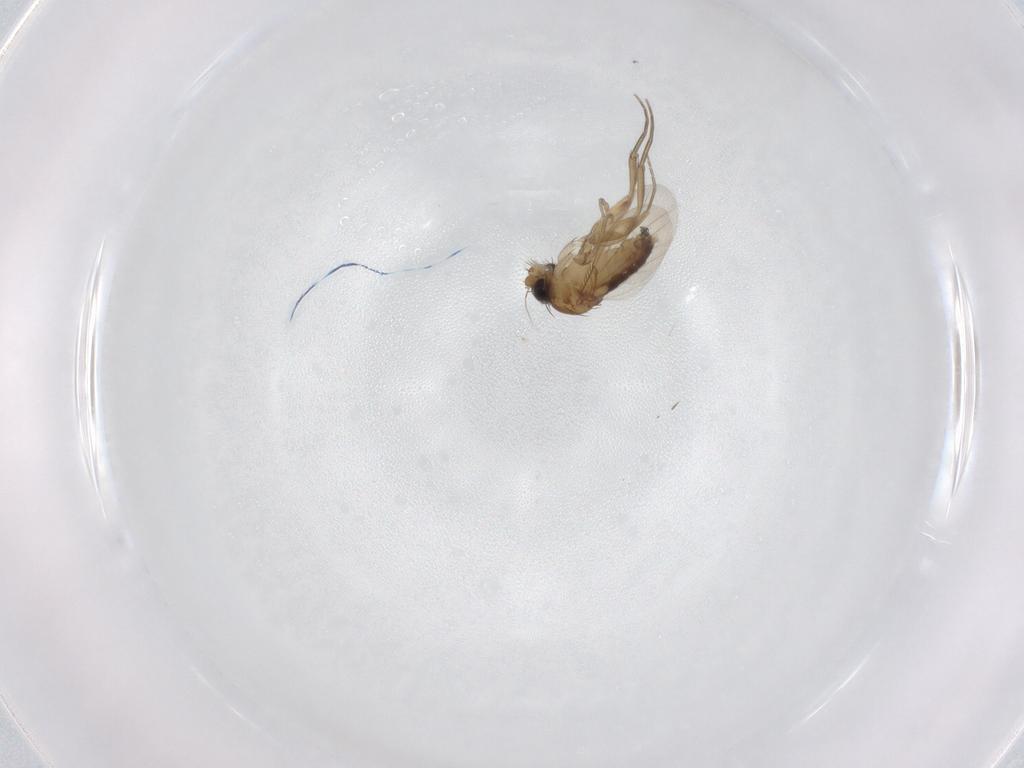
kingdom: Animalia
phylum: Arthropoda
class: Insecta
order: Diptera
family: Phoridae
